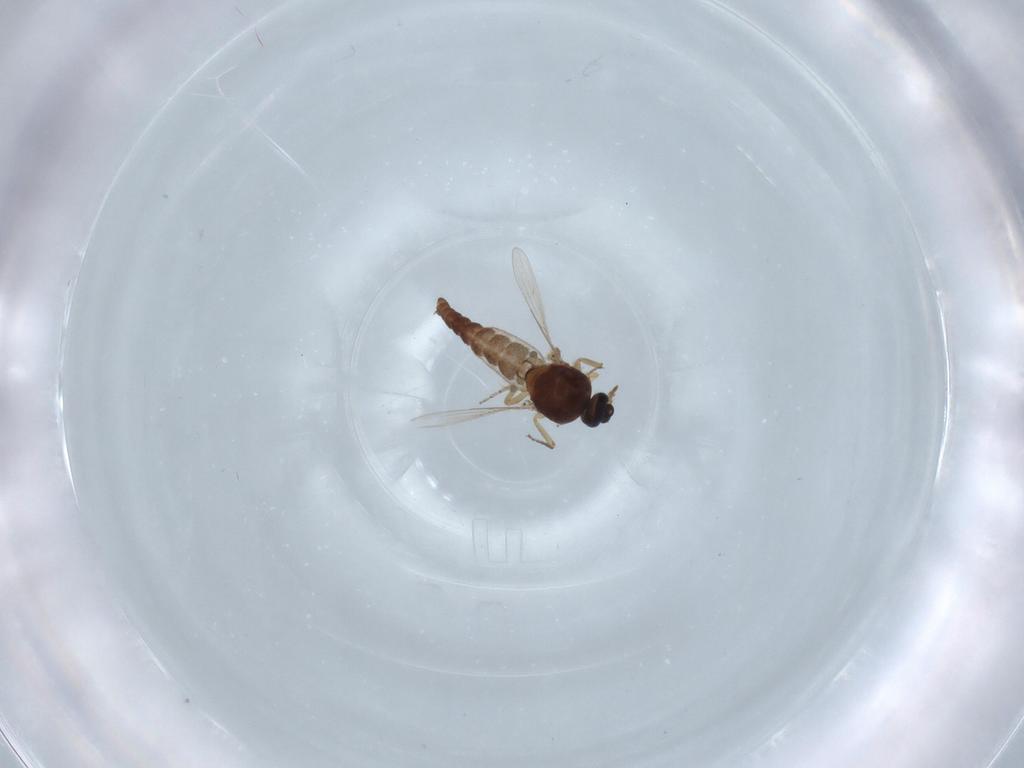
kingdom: Animalia
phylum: Arthropoda
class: Insecta
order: Diptera
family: Ceratopogonidae
